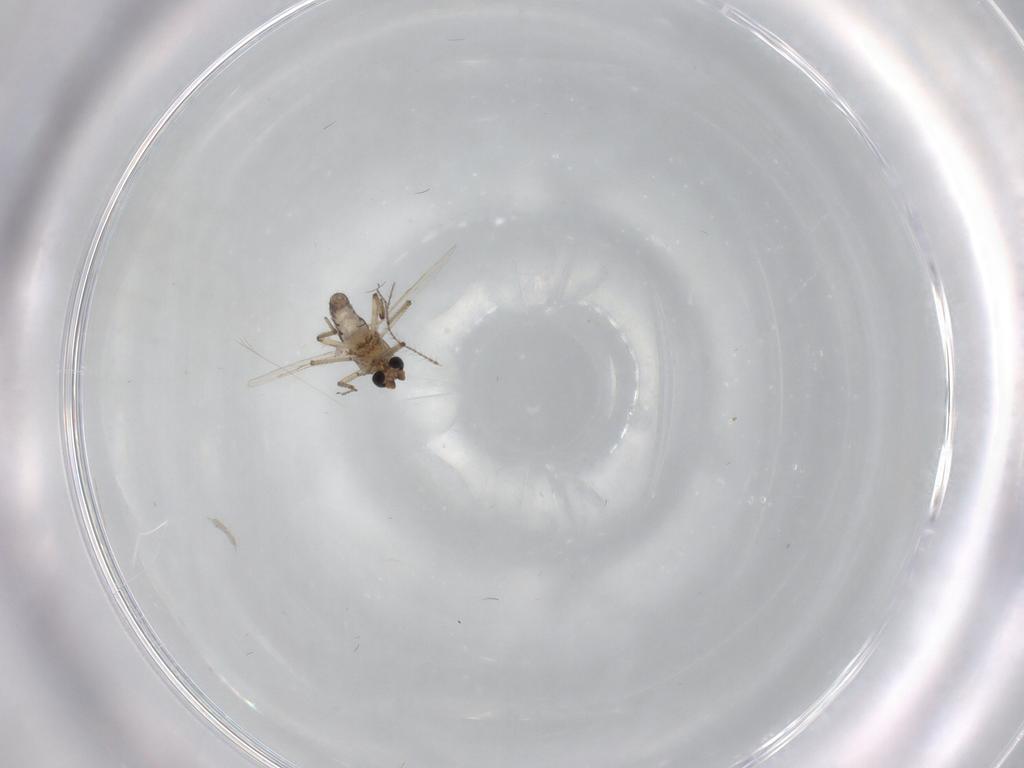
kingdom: Animalia
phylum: Arthropoda
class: Insecta
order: Diptera
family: Ceratopogonidae
